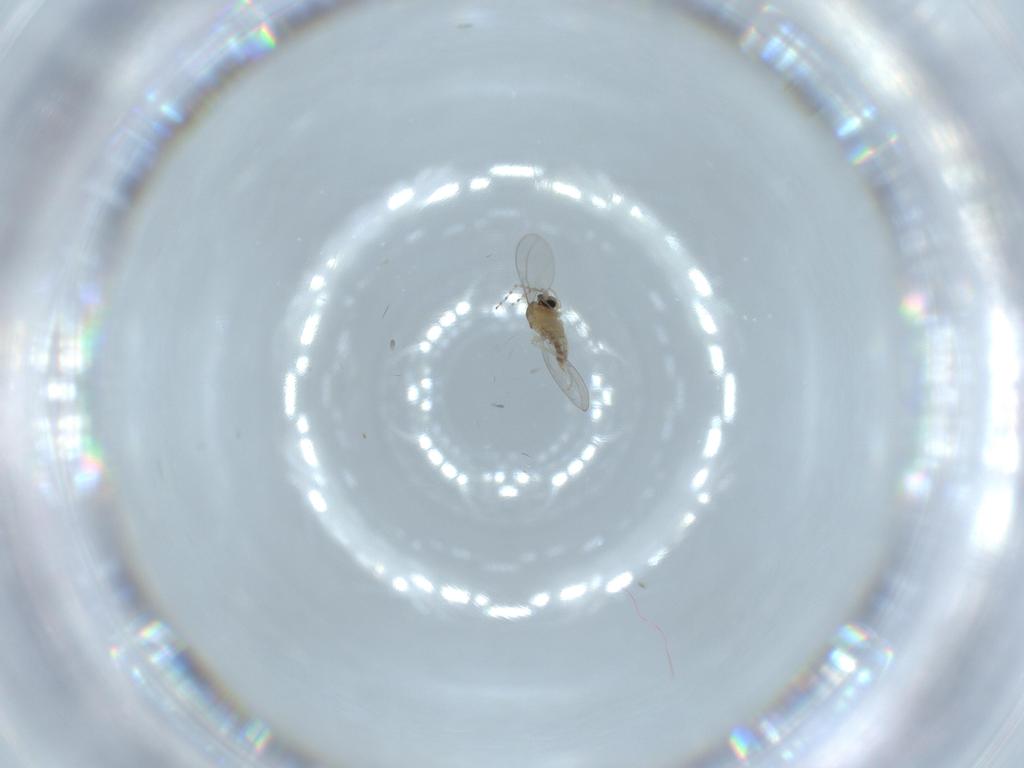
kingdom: Animalia
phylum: Arthropoda
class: Insecta
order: Diptera
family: Cecidomyiidae
